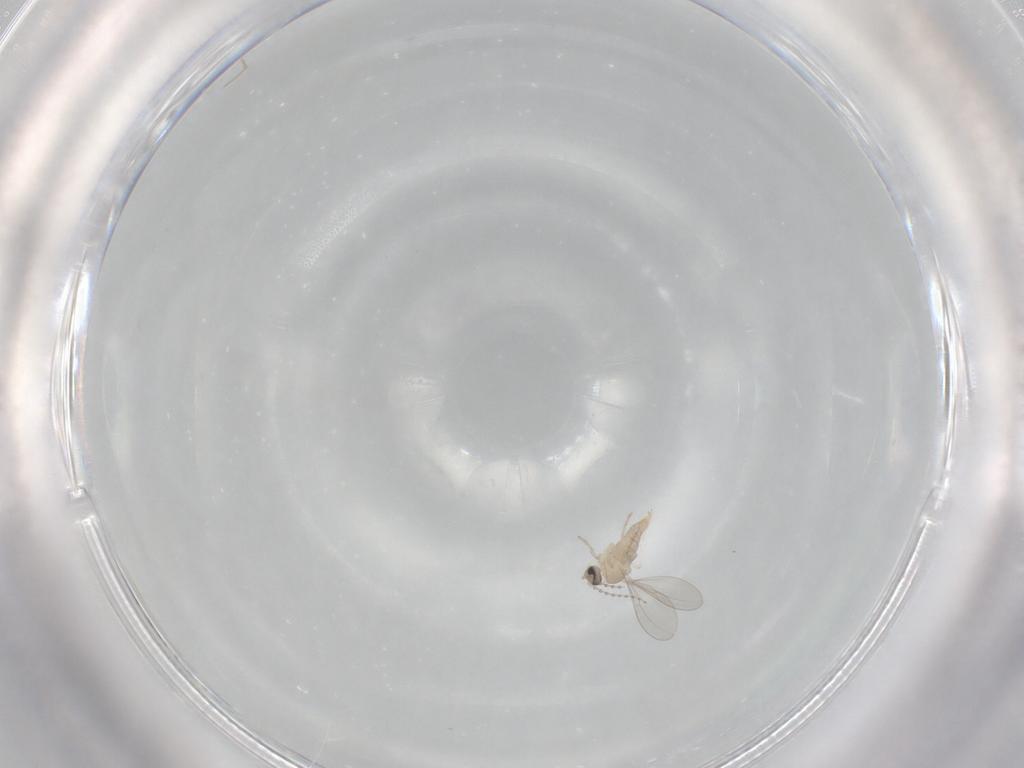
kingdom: Animalia
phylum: Arthropoda
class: Insecta
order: Diptera
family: Cecidomyiidae
